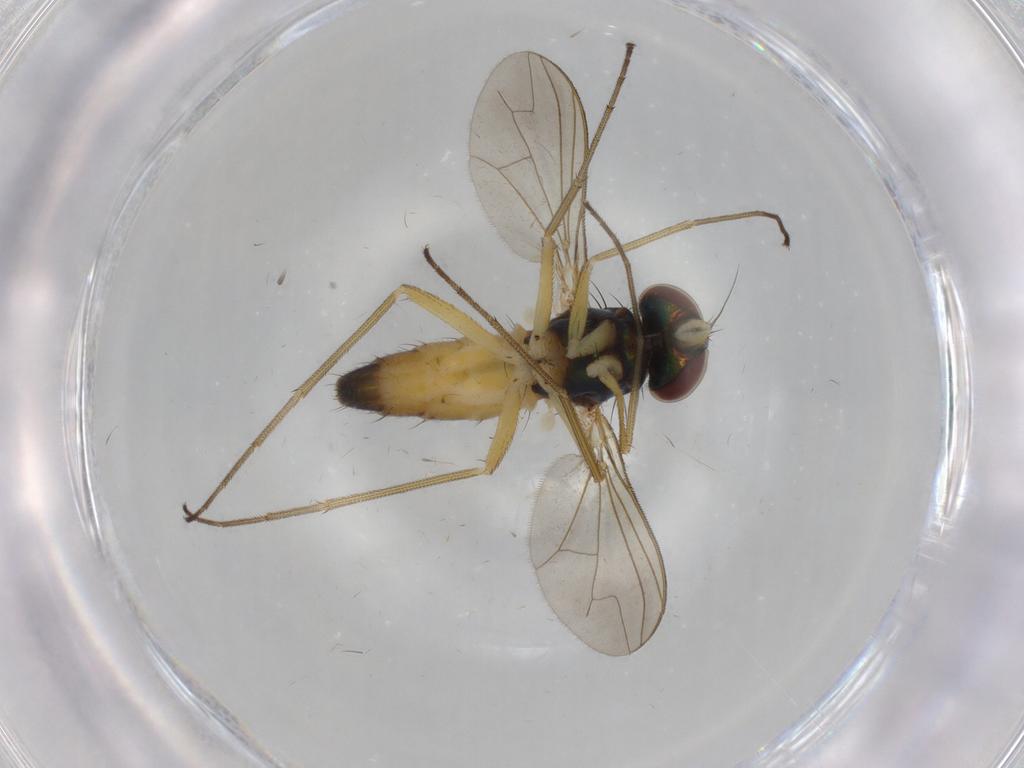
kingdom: Animalia
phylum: Arthropoda
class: Insecta
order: Diptera
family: Dolichopodidae
